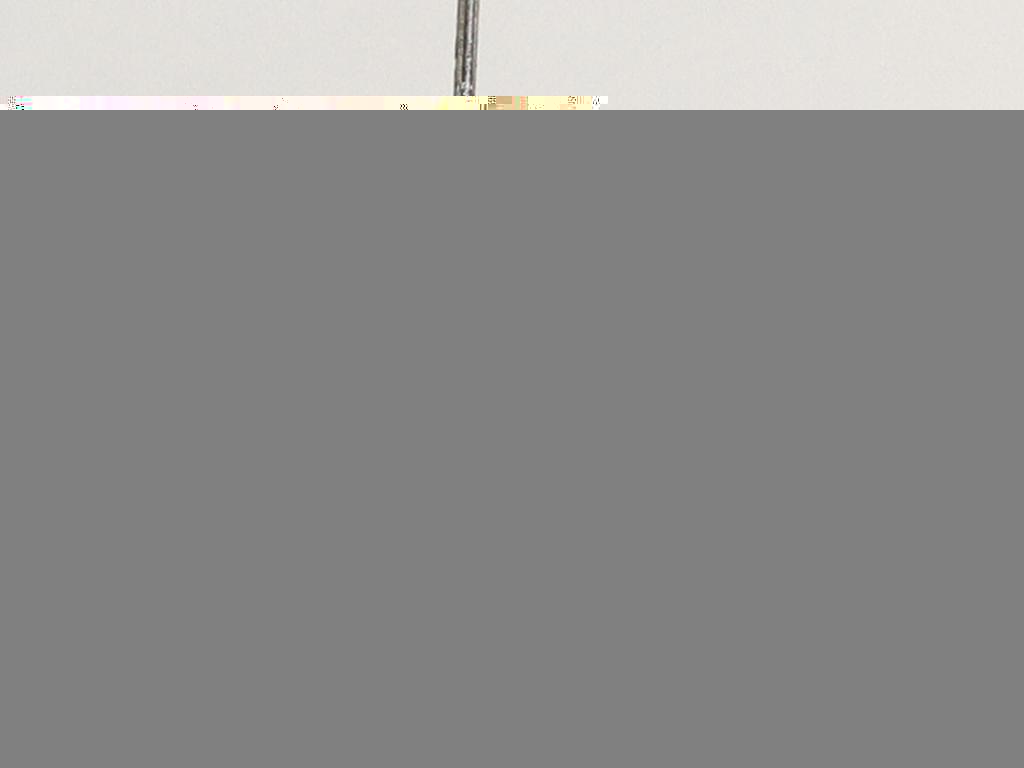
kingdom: Animalia
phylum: Arthropoda
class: Insecta
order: Diptera
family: Cecidomyiidae
